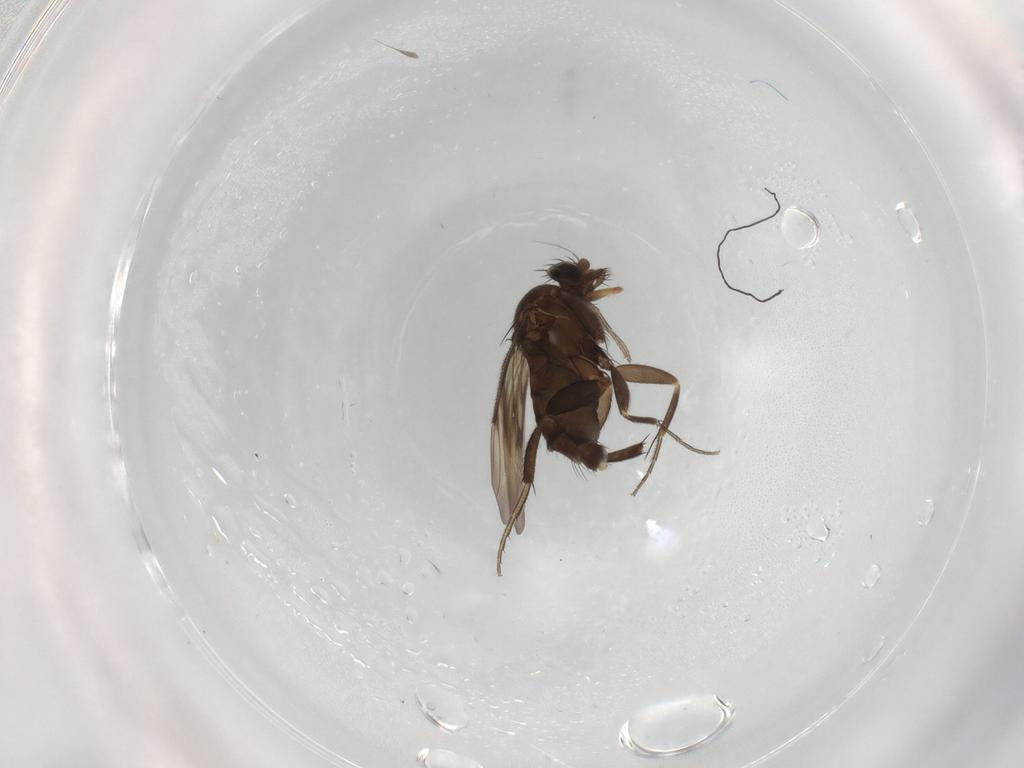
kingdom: Animalia
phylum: Arthropoda
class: Insecta
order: Diptera
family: Phoridae
